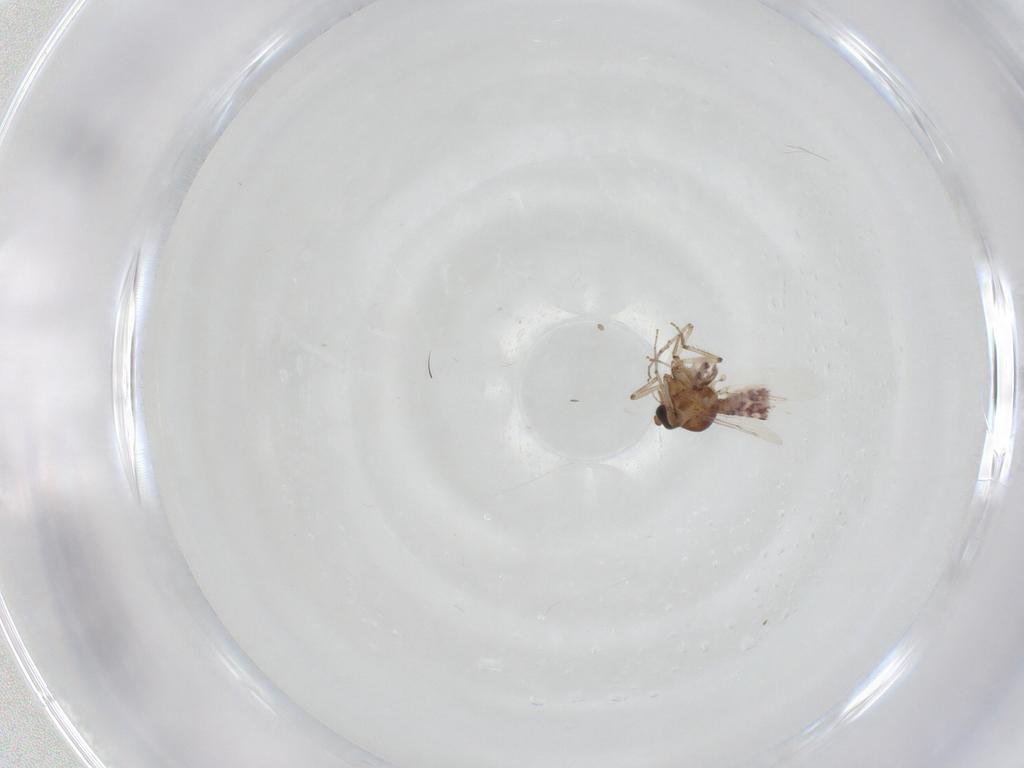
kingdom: Animalia
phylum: Arthropoda
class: Insecta
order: Diptera
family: Ceratopogonidae
